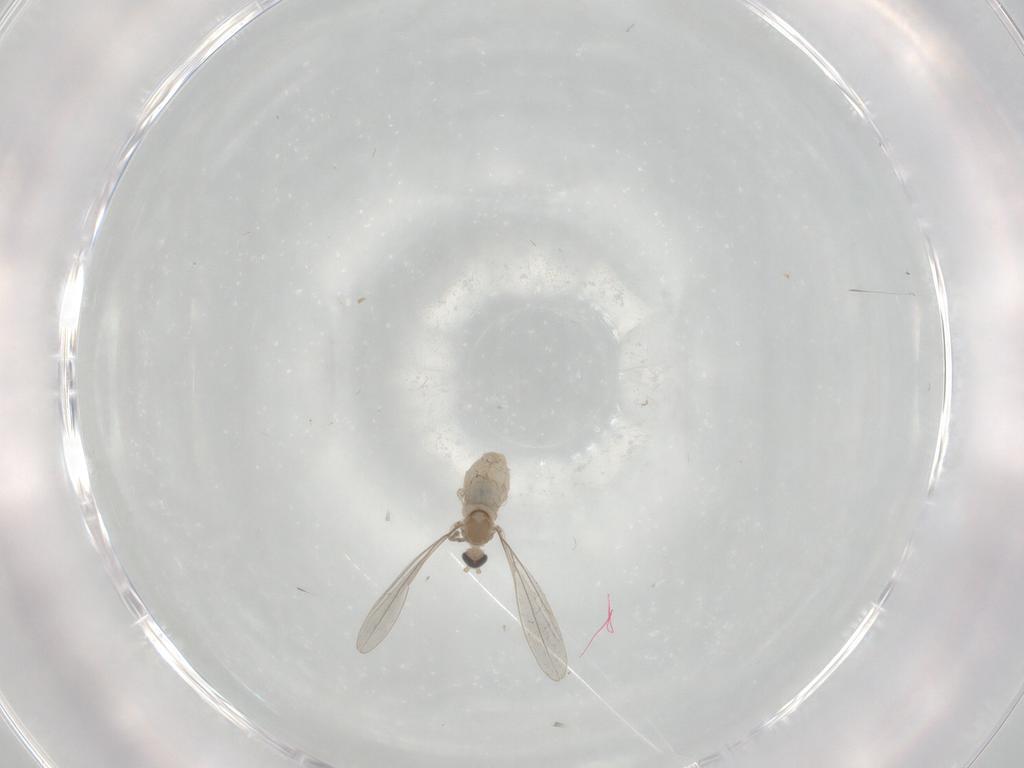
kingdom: Animalia
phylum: Arthropoda
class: Insecta
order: Diptera
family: Cecidomyiidae
